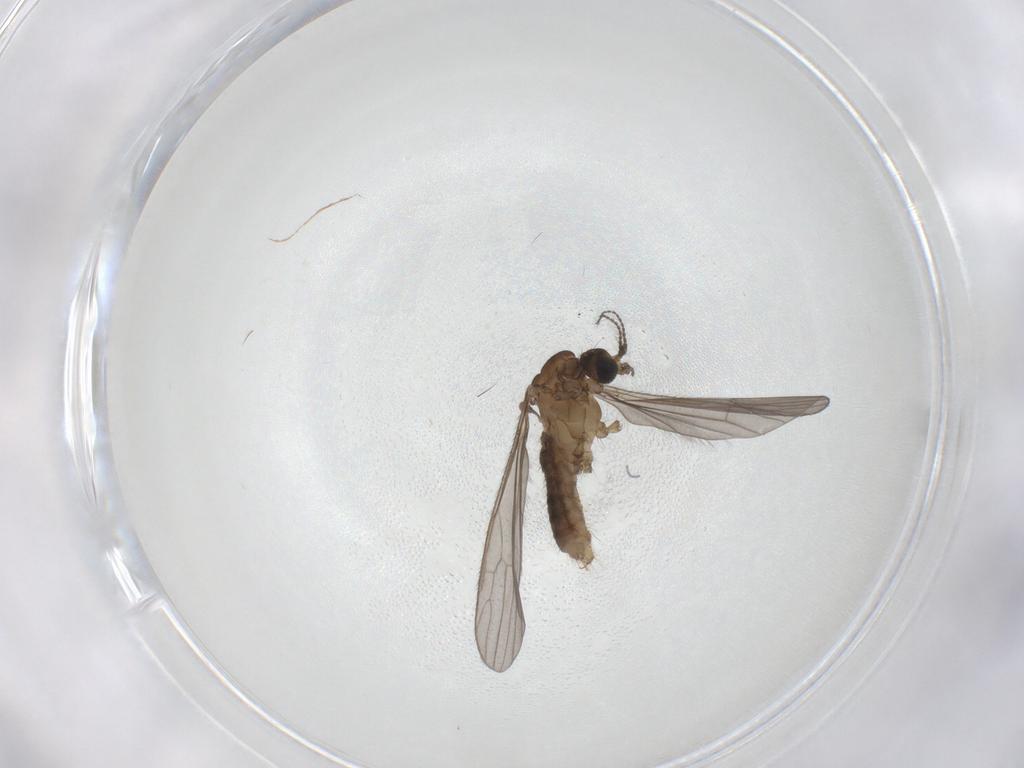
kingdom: Animalia
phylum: Arthropoda
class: Insecta
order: Diptera
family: Limoniidae
